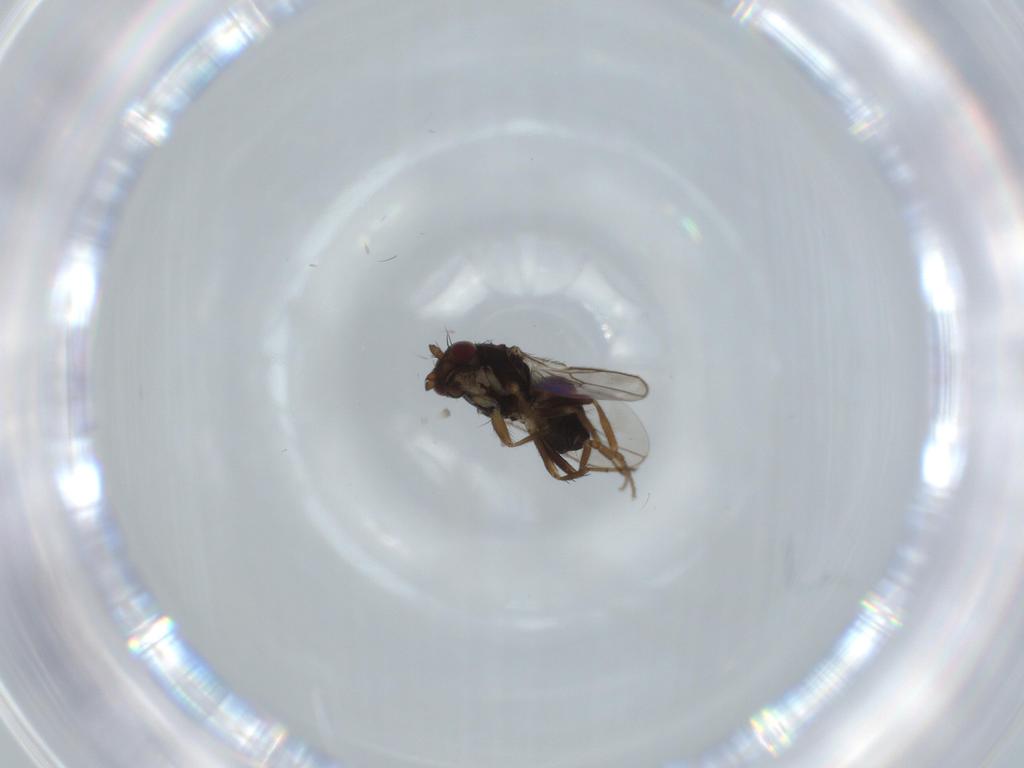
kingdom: Animalia
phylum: Arthropoda
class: Insecta
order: Diptera
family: Sphaeroceridae
